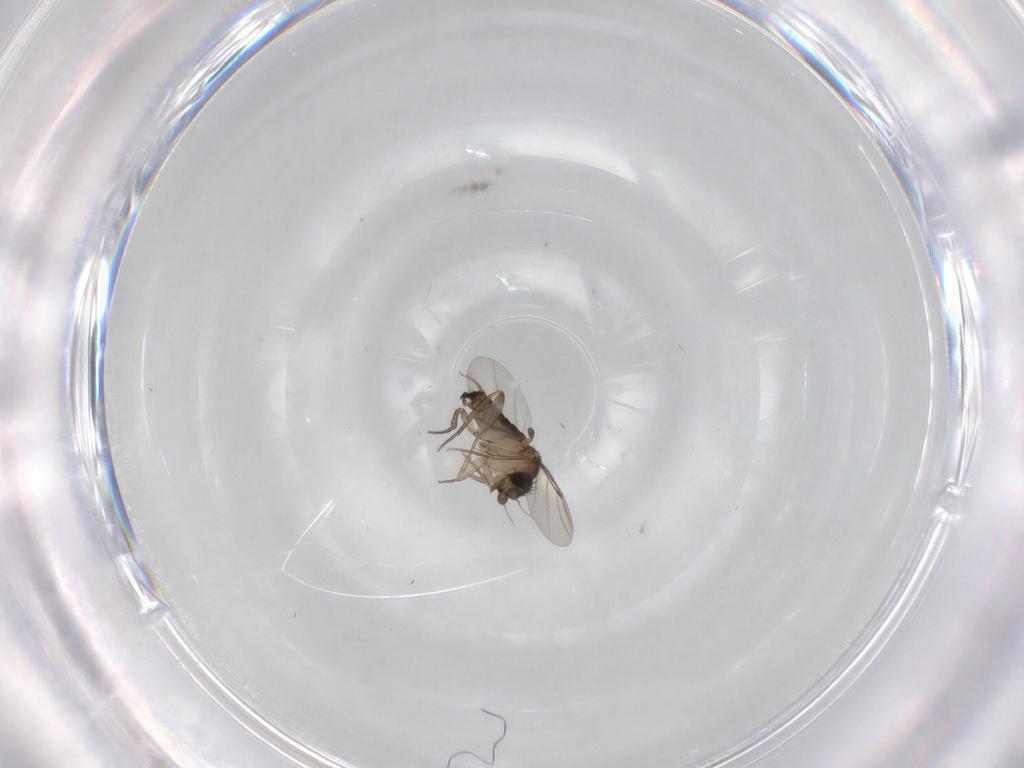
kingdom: Animalia
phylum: Arthropoda
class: Insecta
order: Diptera
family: Phoridae
